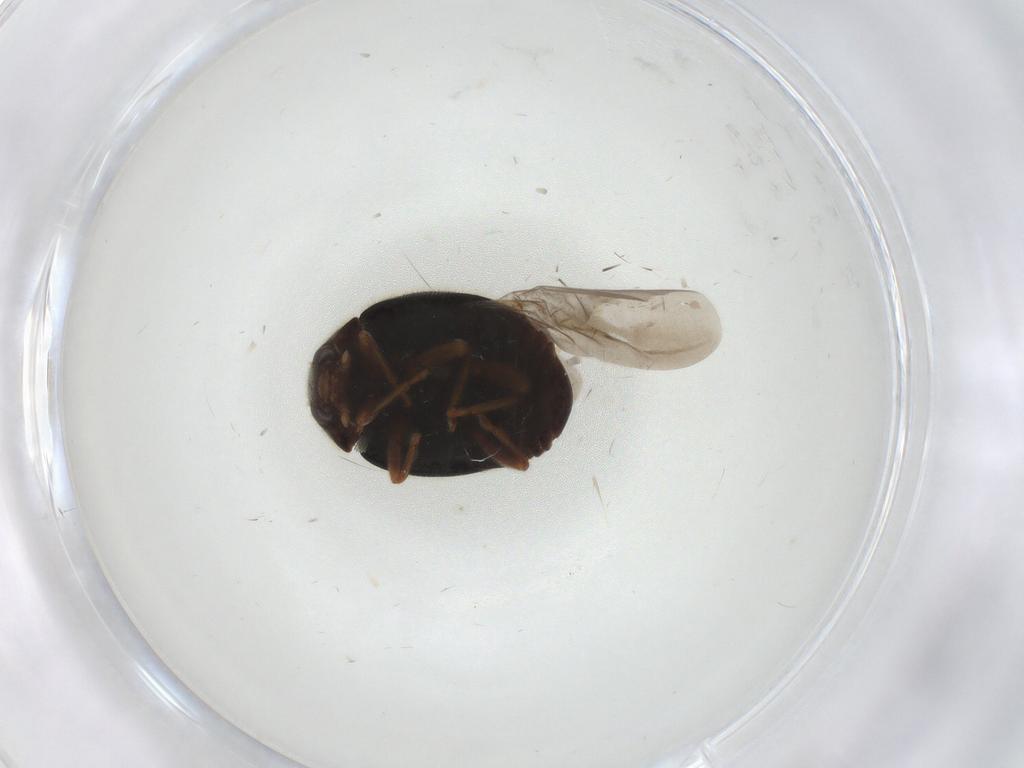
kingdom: Animalia
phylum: Arthropoda
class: Insecta
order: Coleoptera
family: Coccinellidae
